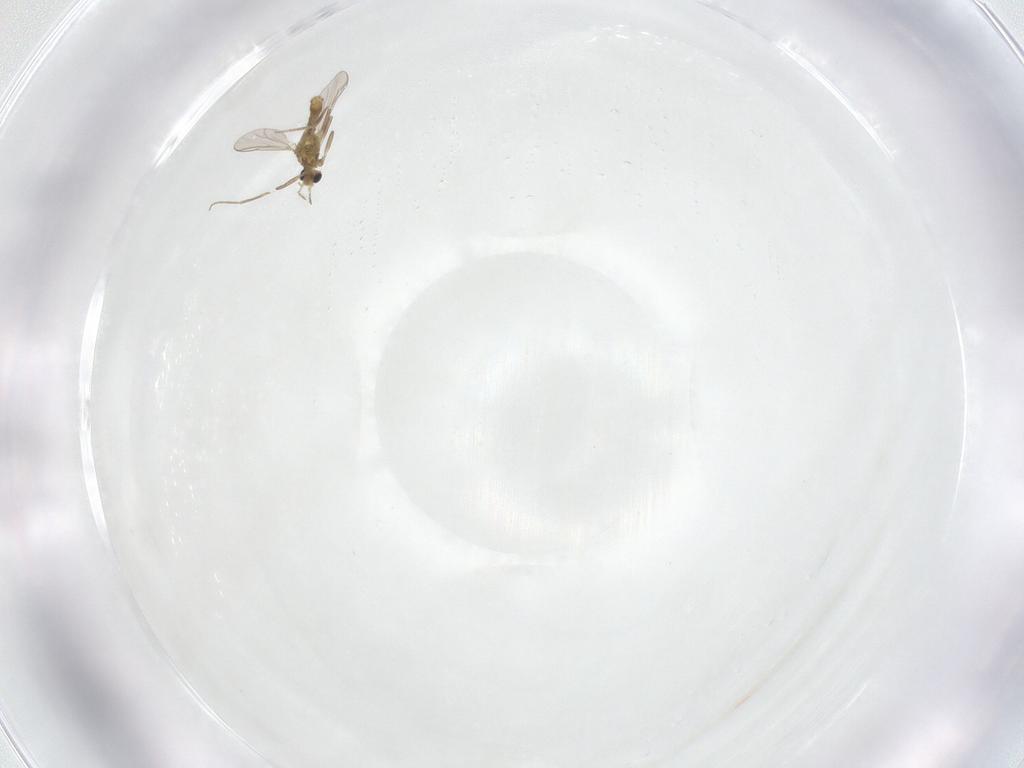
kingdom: Animalia
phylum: Arthropoda
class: Insecta
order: Diptera
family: Chironomidae
